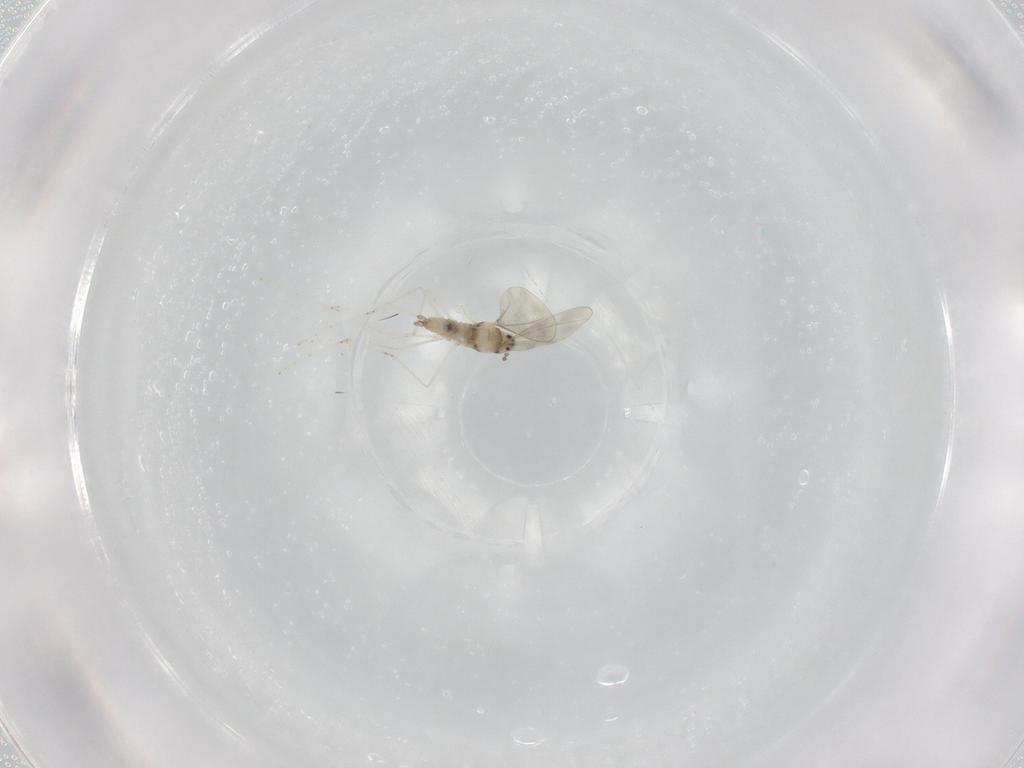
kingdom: Animalia
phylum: Arthropoda
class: Insecta
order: Diptera
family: Cecidomyiidae
